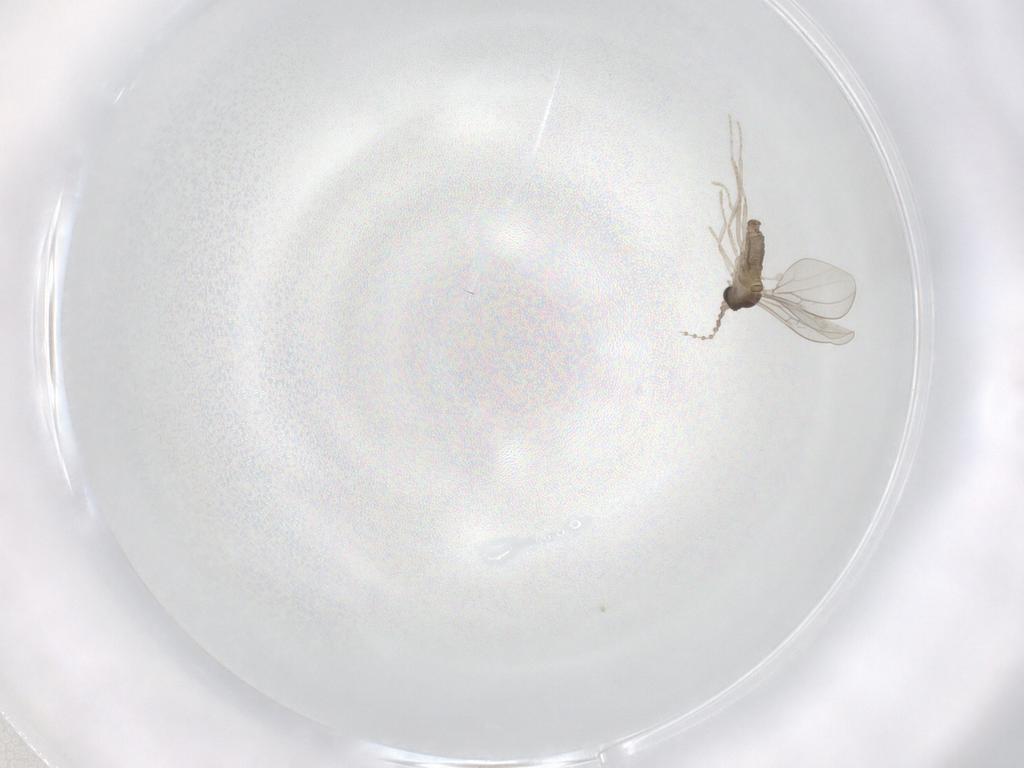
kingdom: Animalia
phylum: Arthropoda
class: Insecta
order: Diptera
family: Cecidomyiidae
